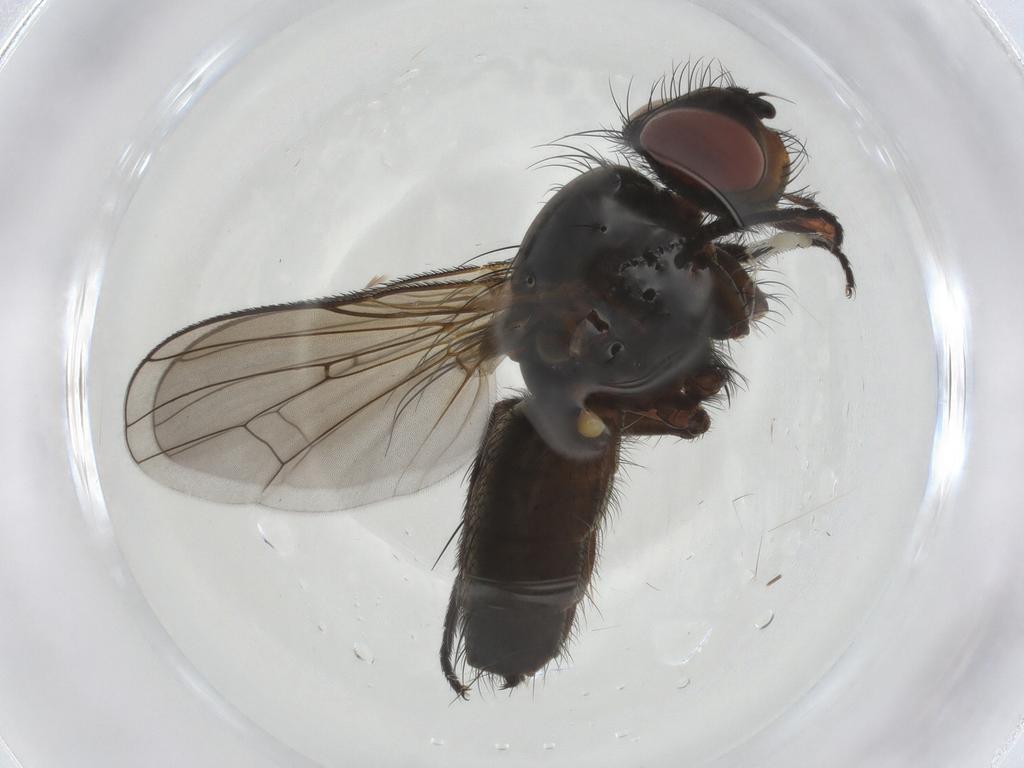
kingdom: Animalia
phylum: Arthropoda
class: Insecta
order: Diptera
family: Anthomyiidae
